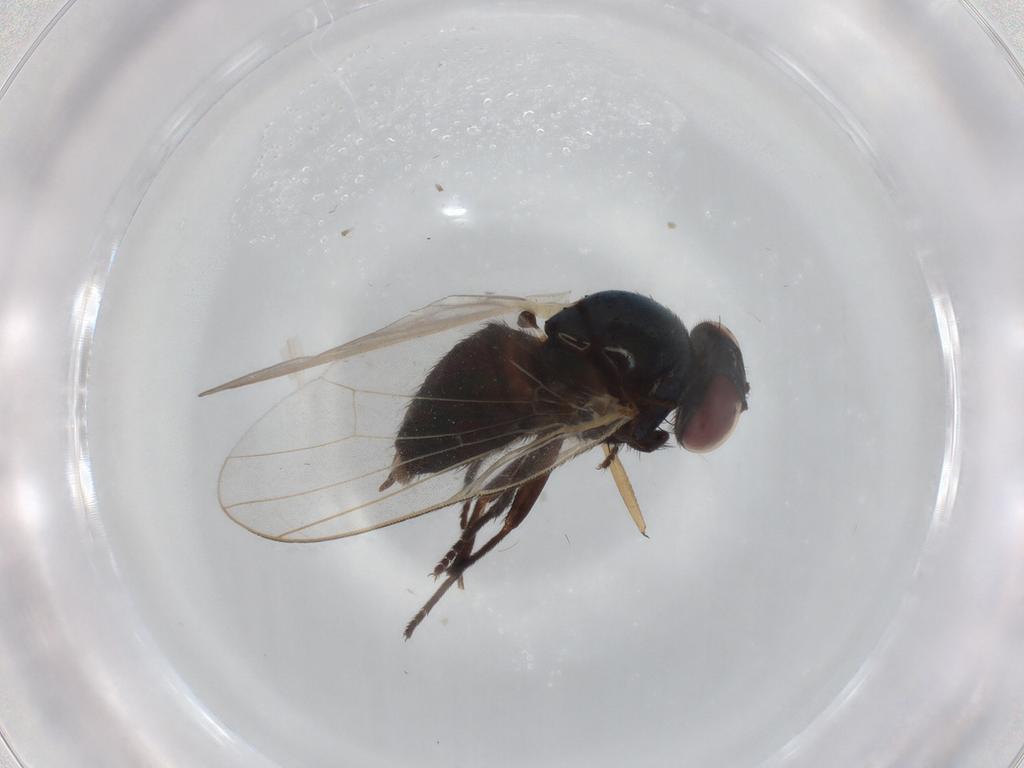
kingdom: Animalia
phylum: Arthropoda
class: Insecta
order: Diptera
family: Lonchaeidae
